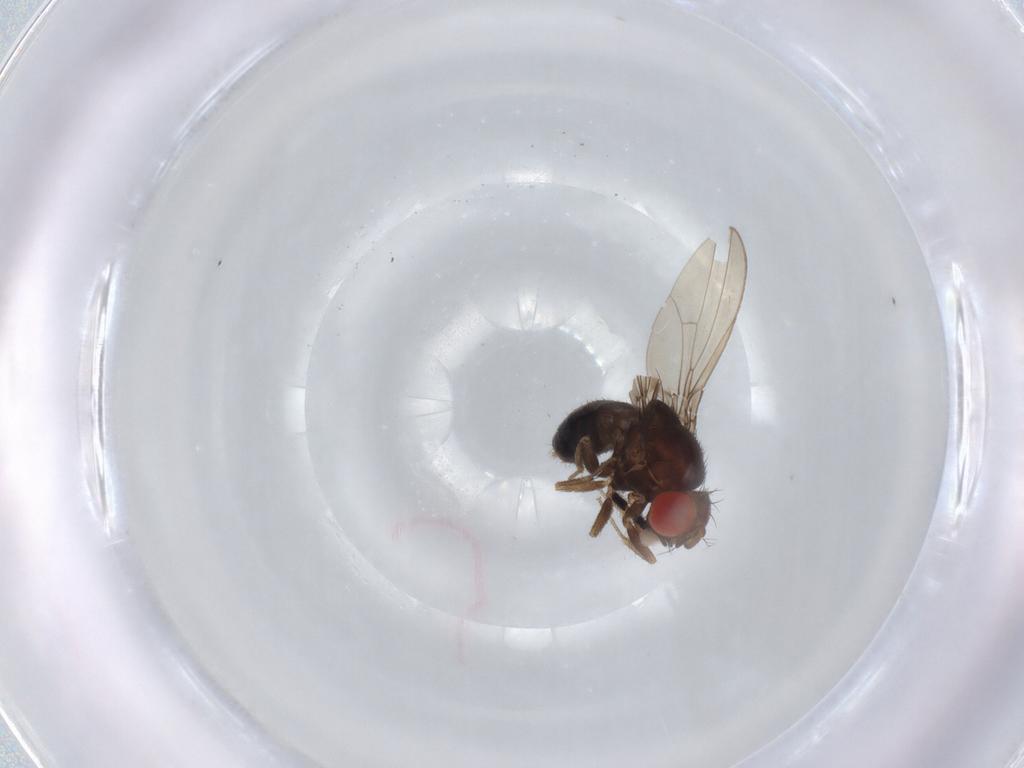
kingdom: Animalia
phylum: Arthropoda
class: Insecta
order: Diptera
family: Drosophilidae
